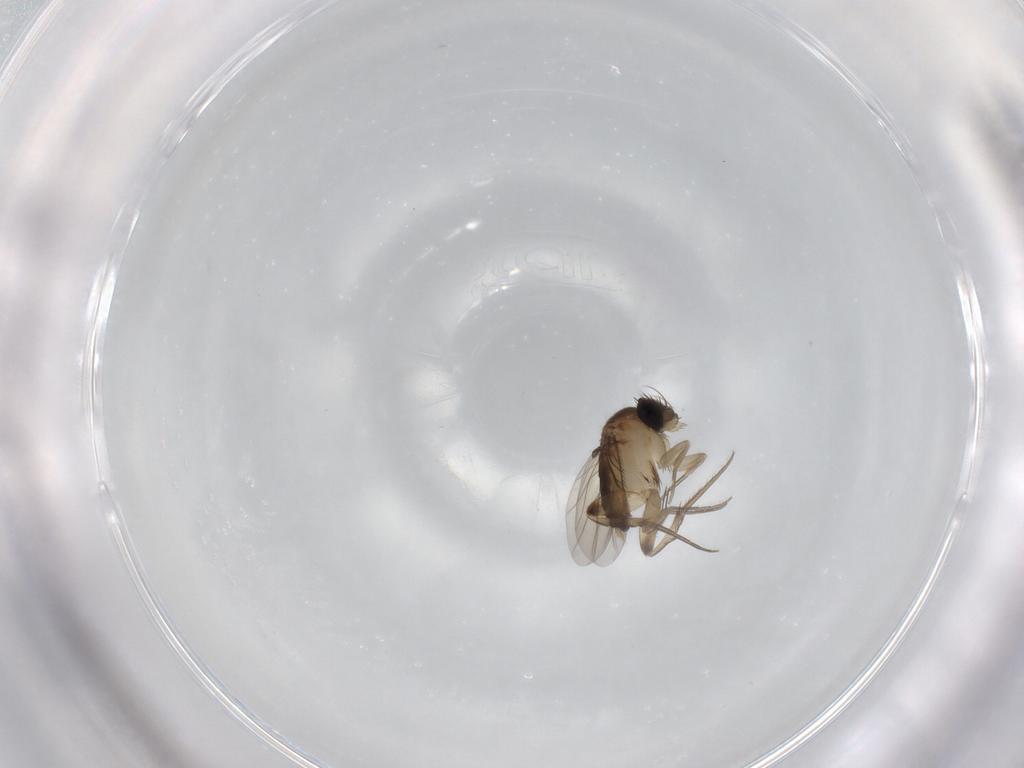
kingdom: Animalia
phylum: Arthropoda
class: Insecta
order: Diptera
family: Phoridae
